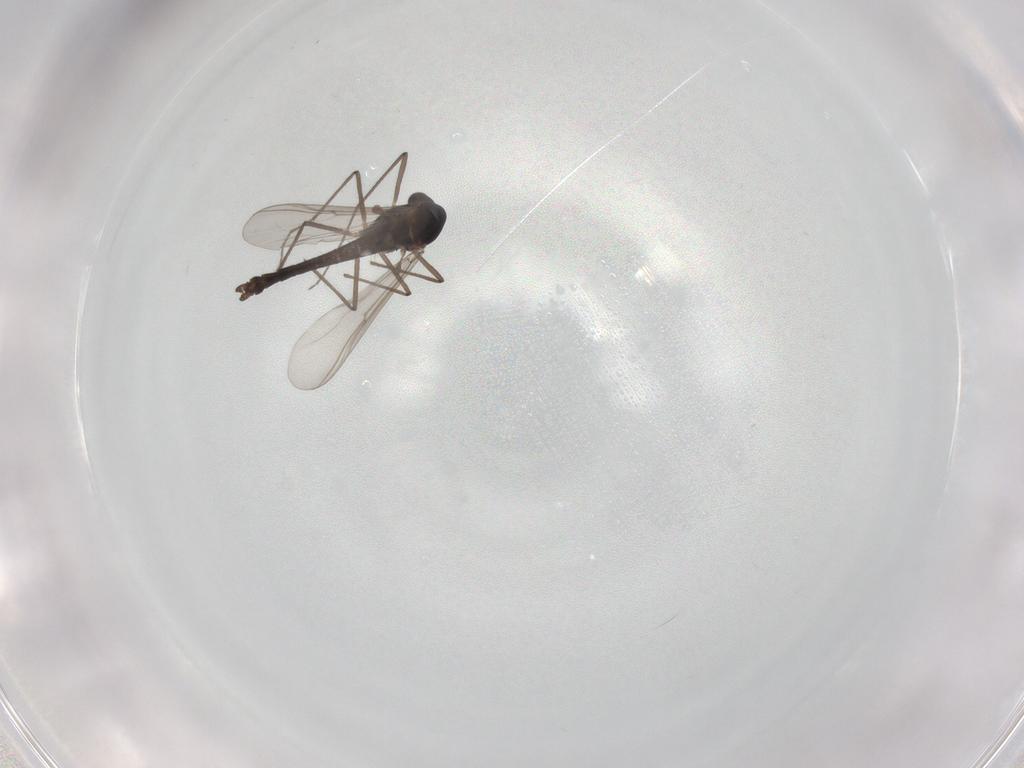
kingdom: Animalia
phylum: Arthropoda
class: Insecta
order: Diptera
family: Chironomidae
